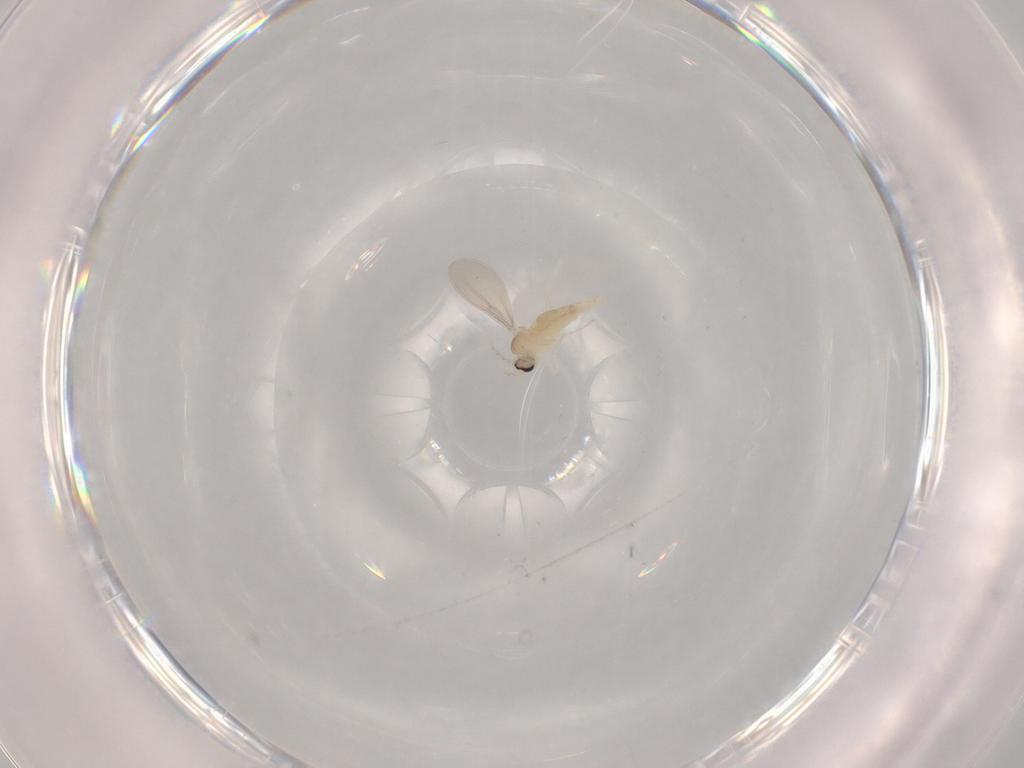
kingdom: Animalia
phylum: Arthropoda
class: Insecta
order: Diptera
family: Cecidomyiidae
